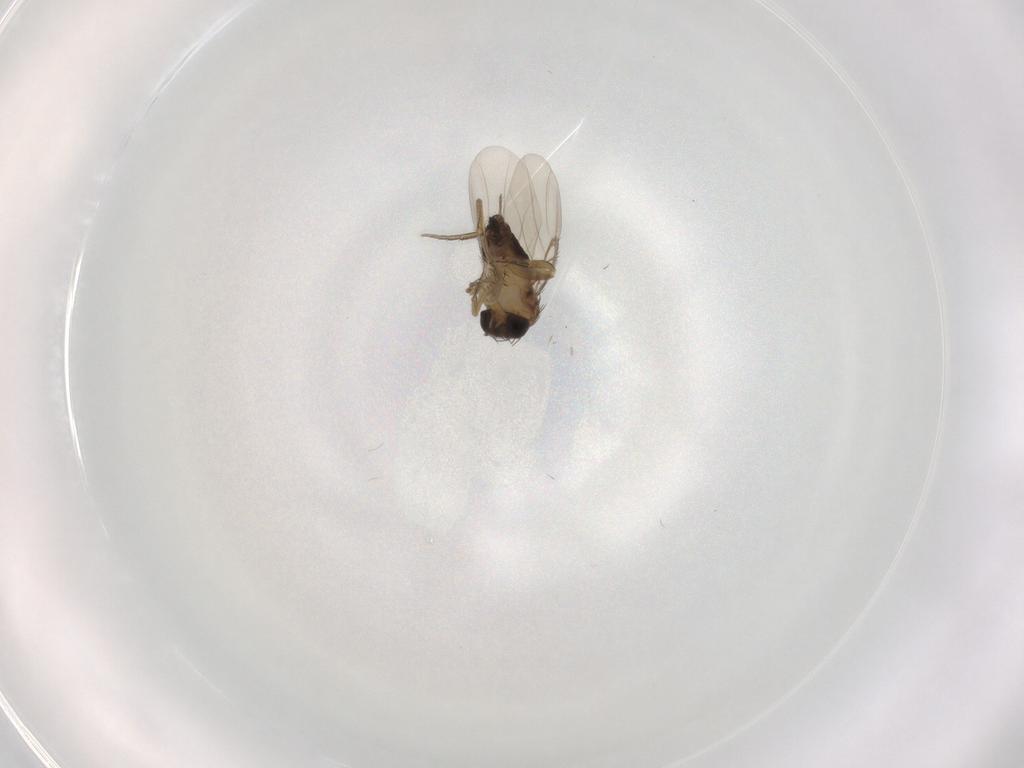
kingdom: Animalia
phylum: Arthropoda
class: Insecta
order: Diptera
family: Phoridae
